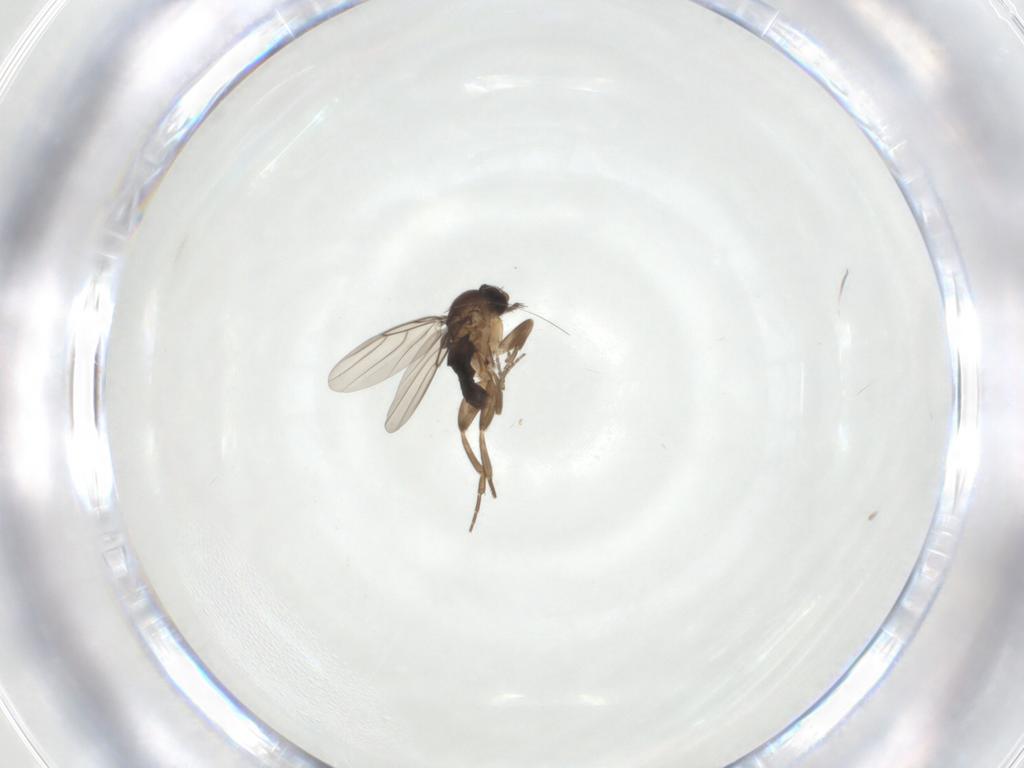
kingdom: Animalia
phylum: Arthropoda
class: Insecta
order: Diptera
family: Phoridae
